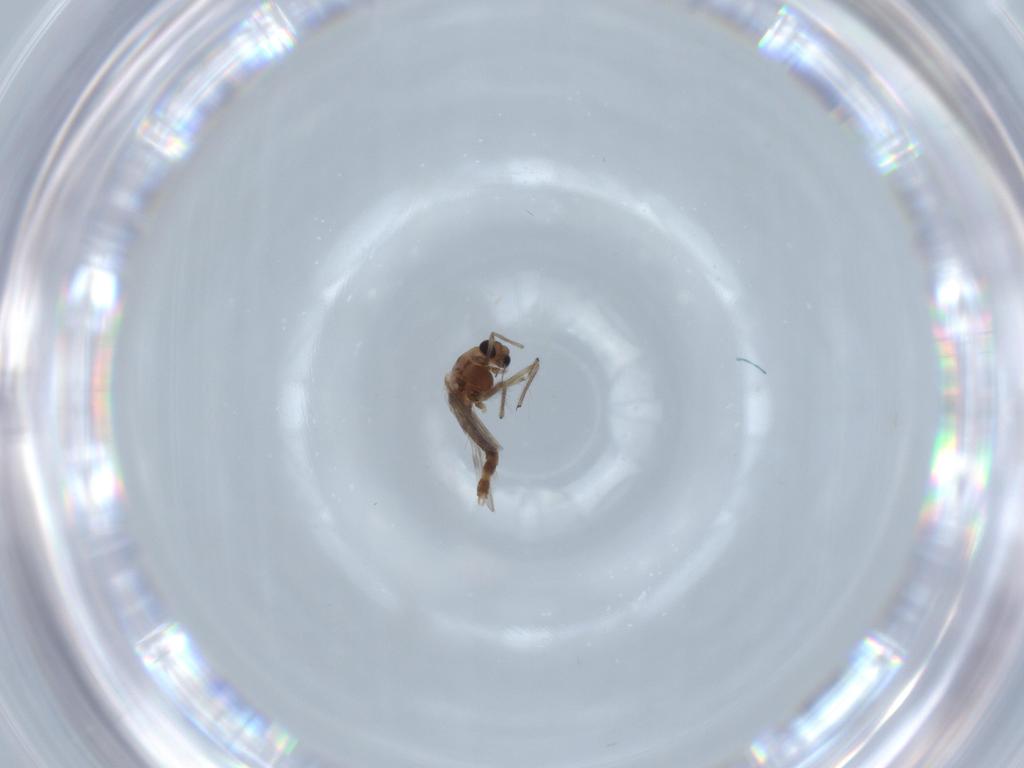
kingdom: Animalia
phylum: Arthropoda
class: Insecta
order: Diptera
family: Chironomidae
